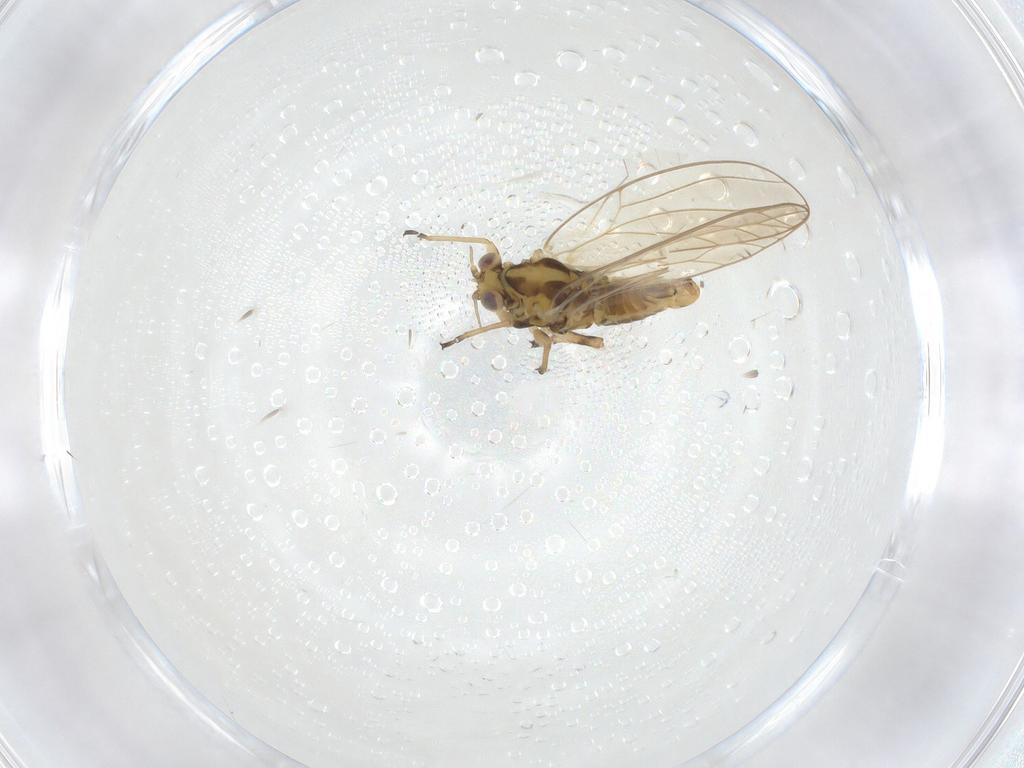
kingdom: Animalia
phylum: Arthropoda
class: Insecta
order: Hemiptera
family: Triozidae
